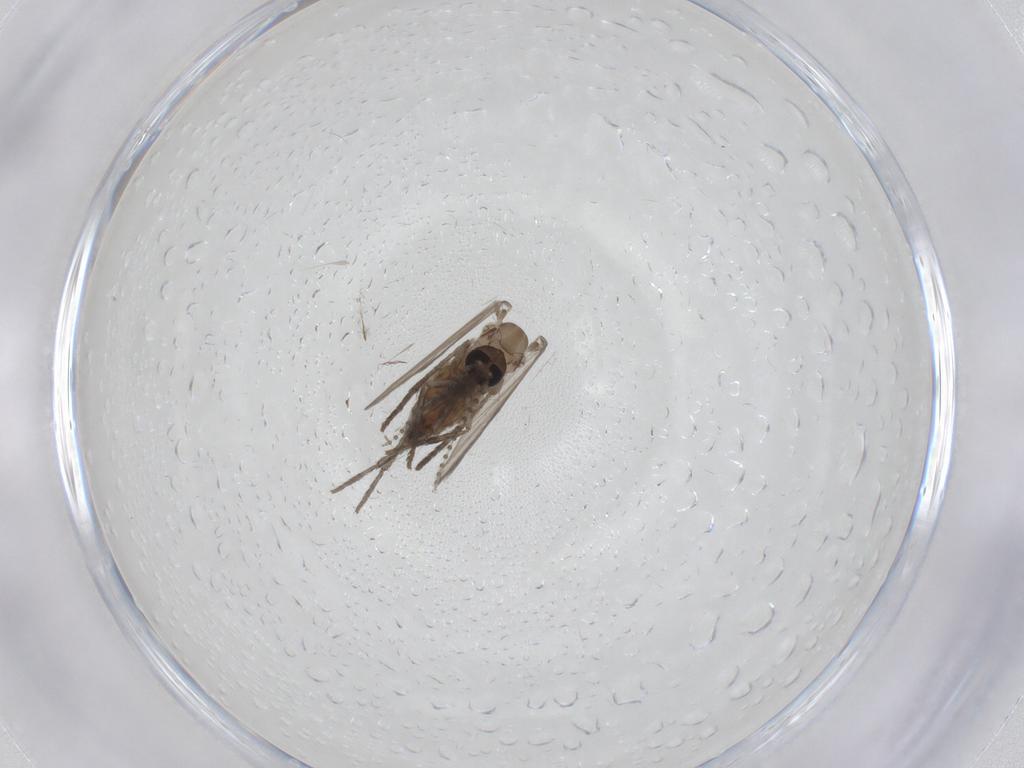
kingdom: Animalia
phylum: Arthropoda
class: Insecta
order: Diptera
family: Psychodidae
